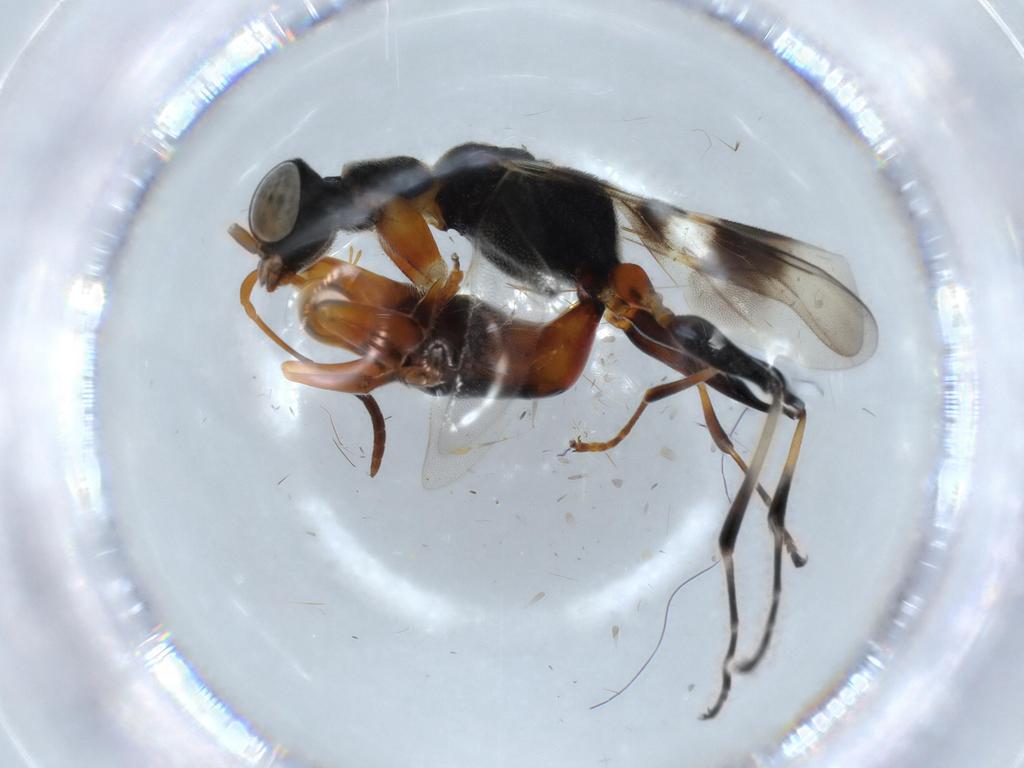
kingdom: Animalia
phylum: Arthropoda
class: Insecta
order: Hymenoptera
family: Dryinidae
